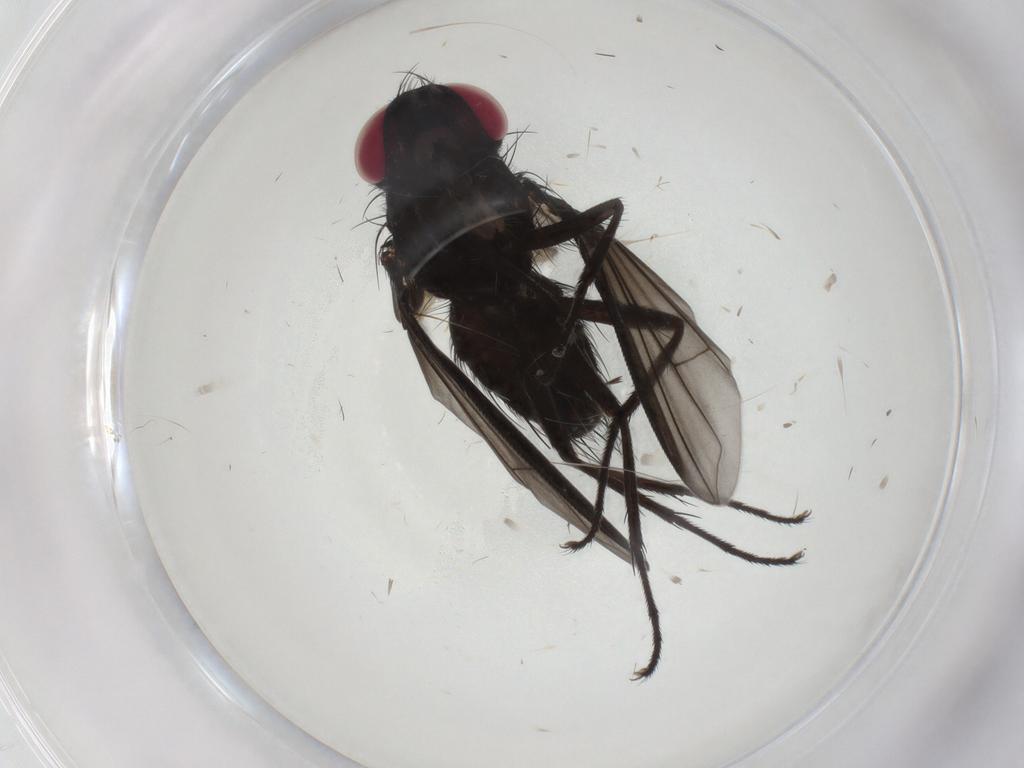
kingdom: Animalia
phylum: Arthropoda
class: Insecta
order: Diptera
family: Tachinidae
